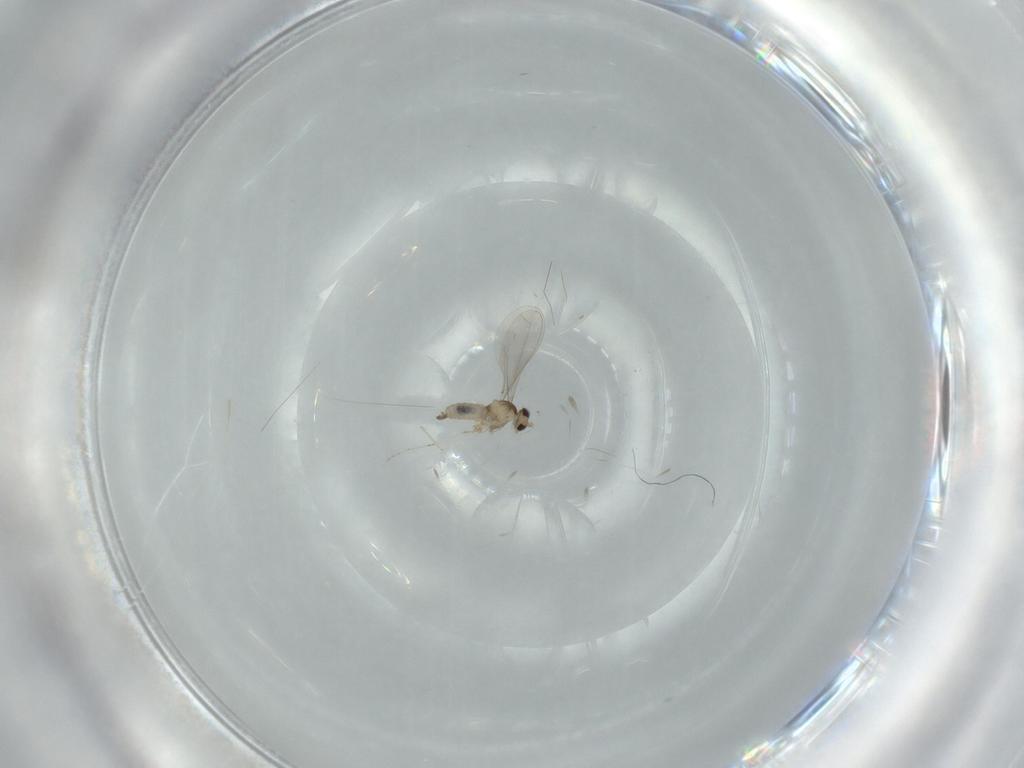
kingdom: Animalia
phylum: Arthropoda
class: Insecta
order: Diptera
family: Cecidomyiidae
